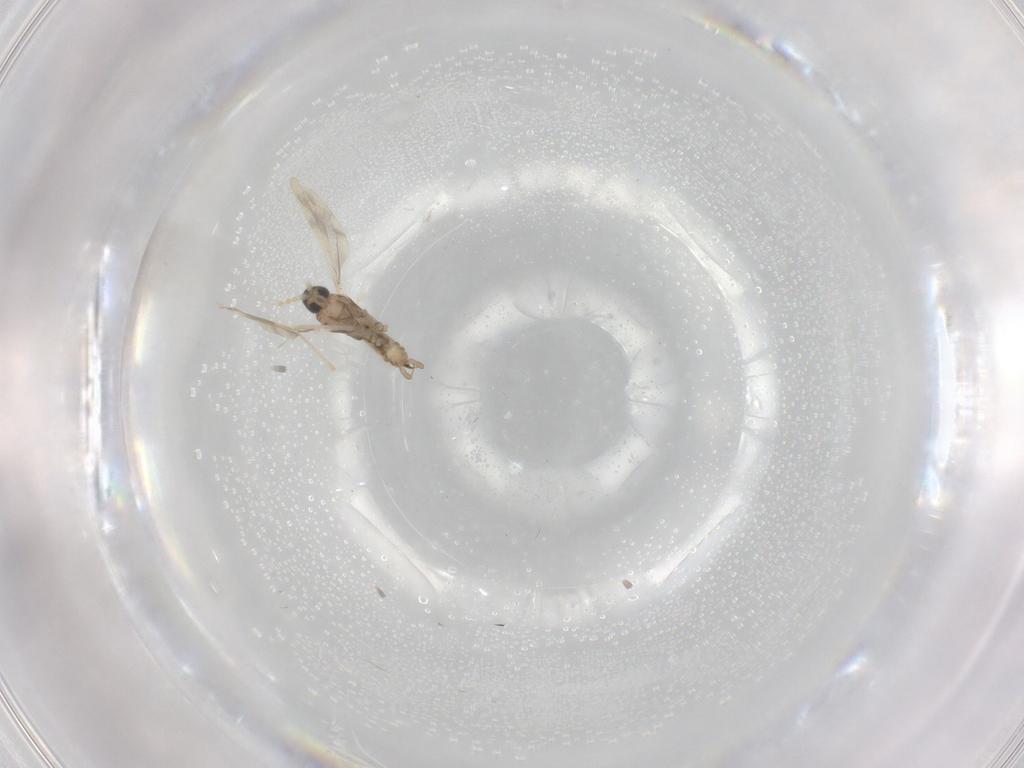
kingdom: Animalia
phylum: Arthropoda
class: Insecta
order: Diptera
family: Cecidomyiidae
